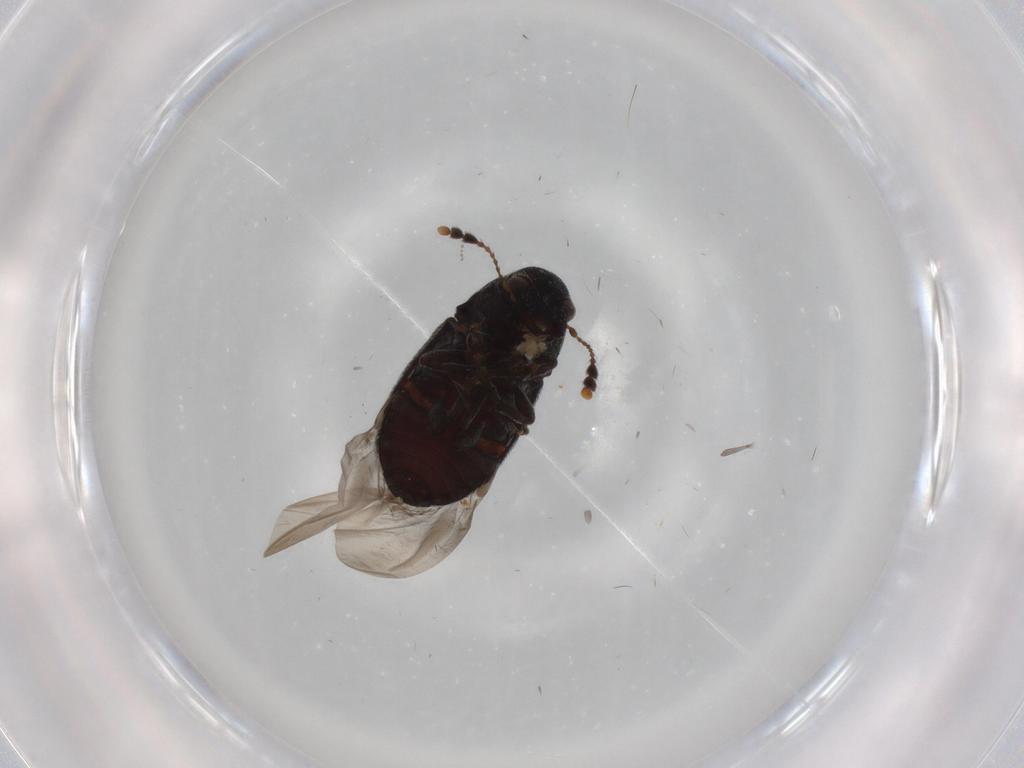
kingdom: Animalia
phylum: Arthropoda
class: Insecta
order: Coleoptera
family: Anthribidae
